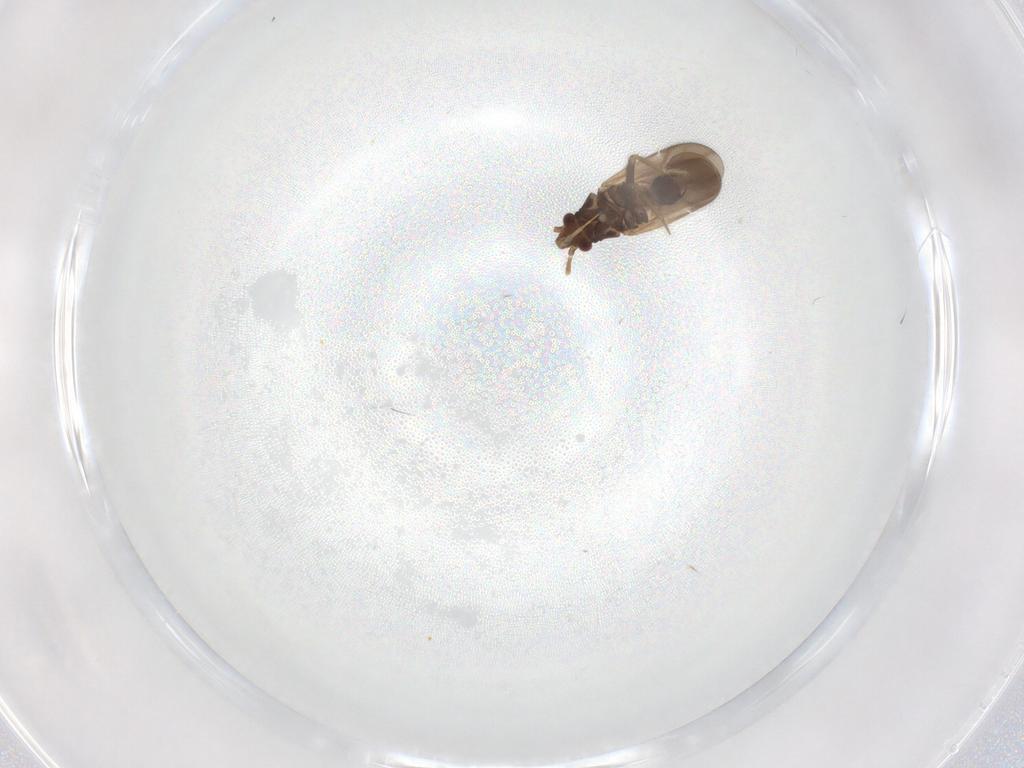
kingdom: Animalia
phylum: Arthropoda
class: Insecta
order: Hemiptera
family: Ceratocombidae
